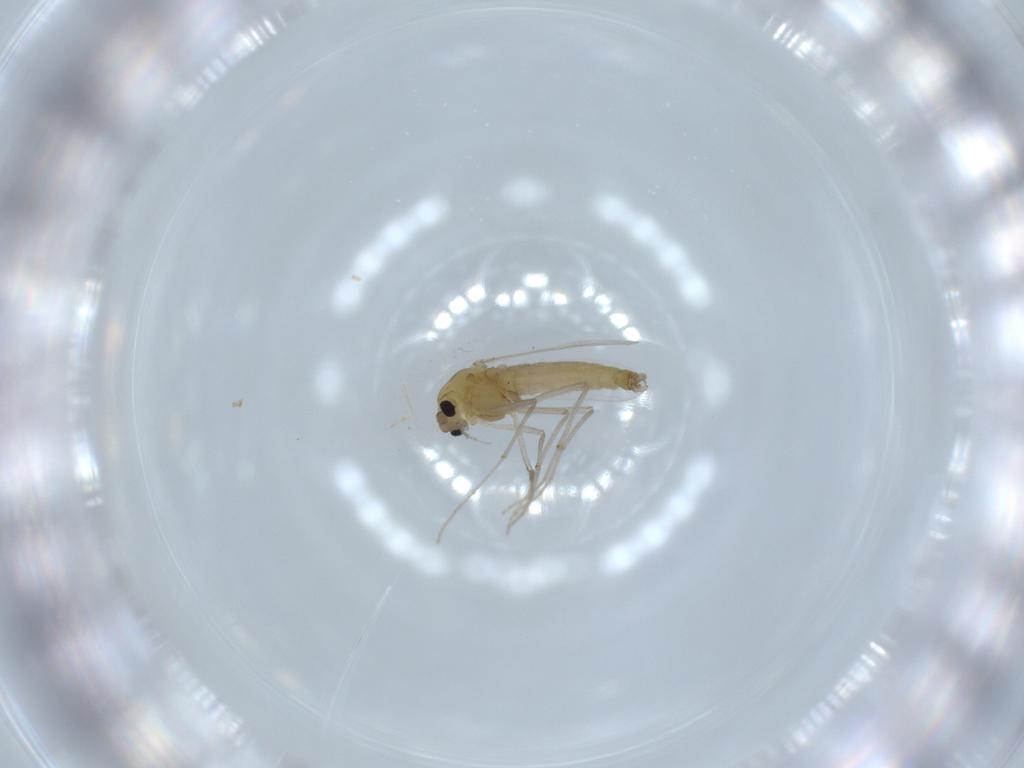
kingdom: Animalia
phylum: Arthropoda
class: Insecta
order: Diptera
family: Chironomidae
